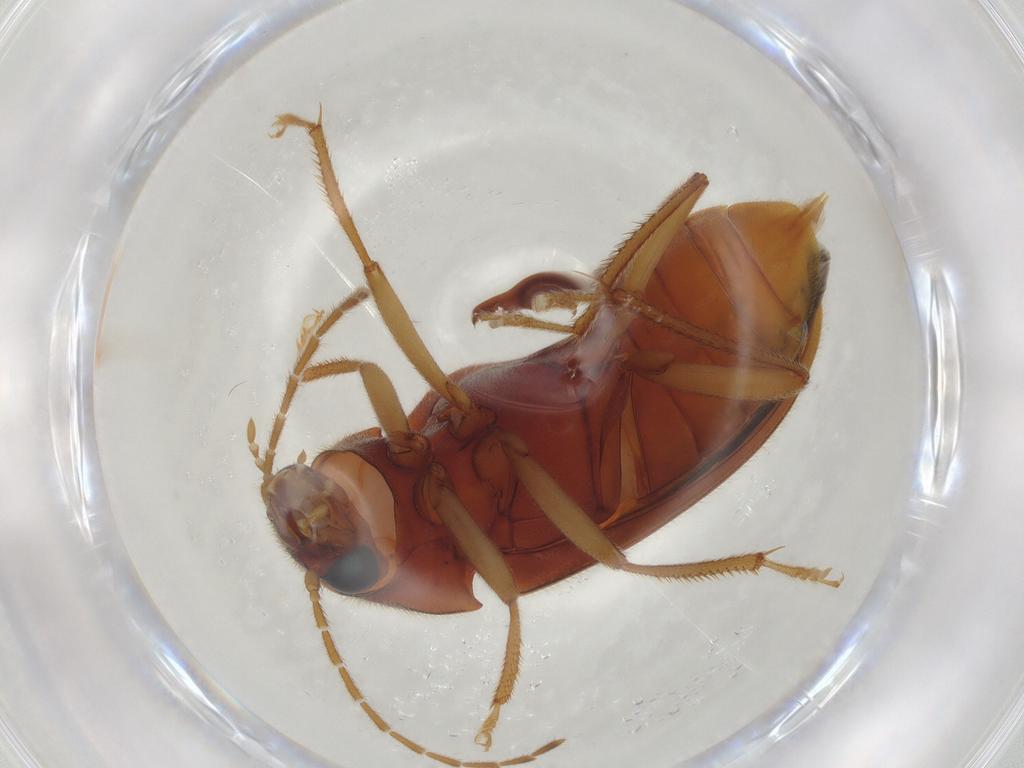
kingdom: Animalia
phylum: Arthropoda
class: Insecta
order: Coleoptera
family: Ptilodactylidae
